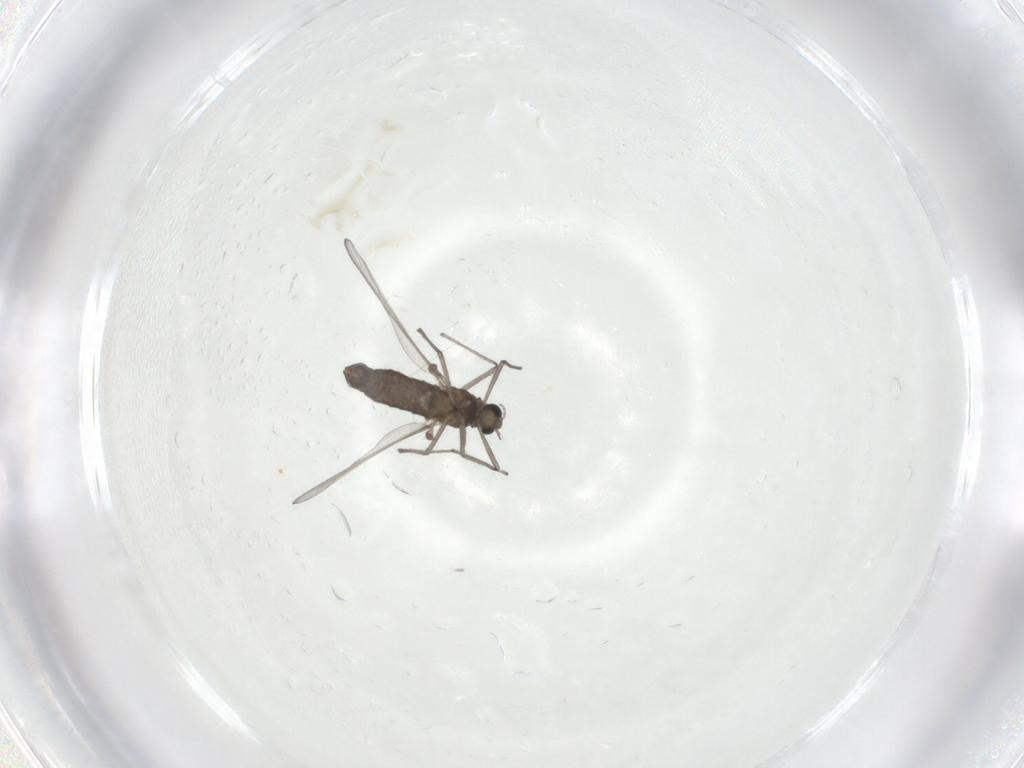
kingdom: Animalia
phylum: Arthropoda
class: Insecta
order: Diptera
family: Chironomidae
